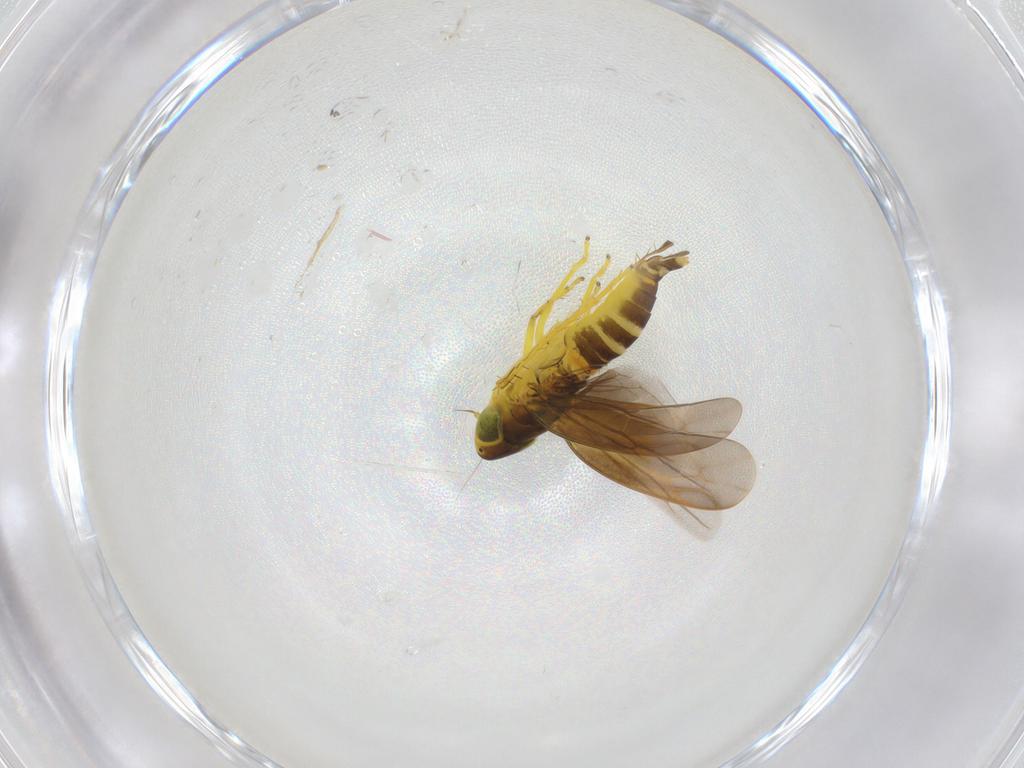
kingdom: Animalia
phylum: Arthropoda
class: Insecta
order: Hemiptera
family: Cicadellidae
